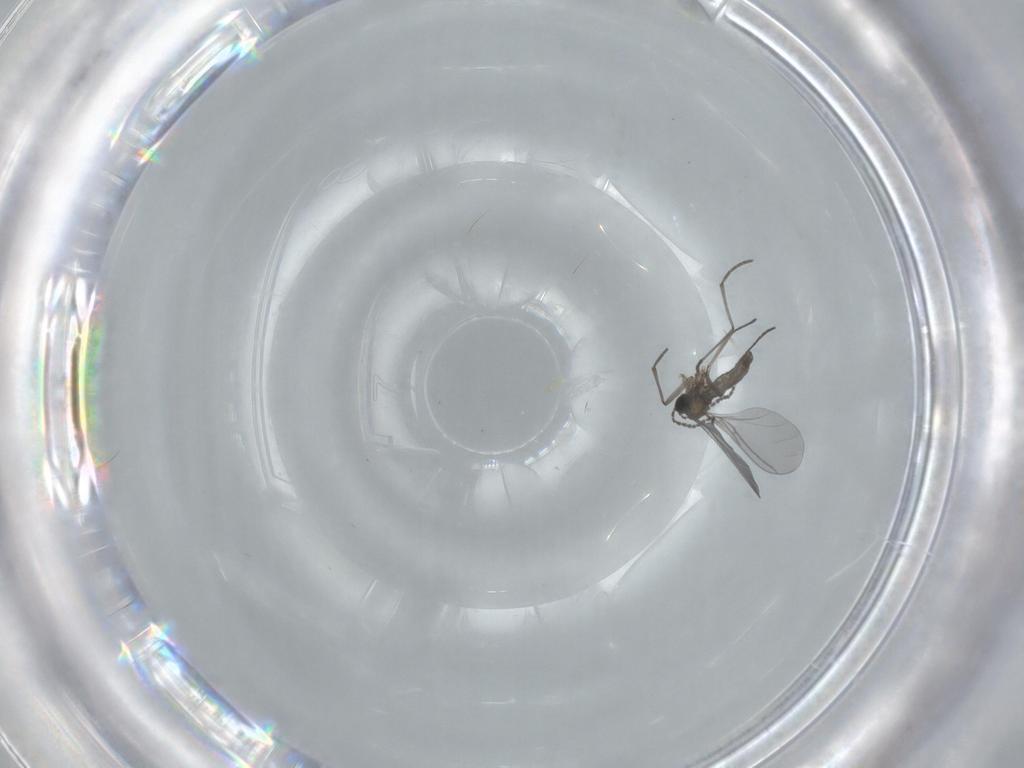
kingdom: Animalia
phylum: Arthropoda
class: Insecta
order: Diptera
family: Sciaridae
